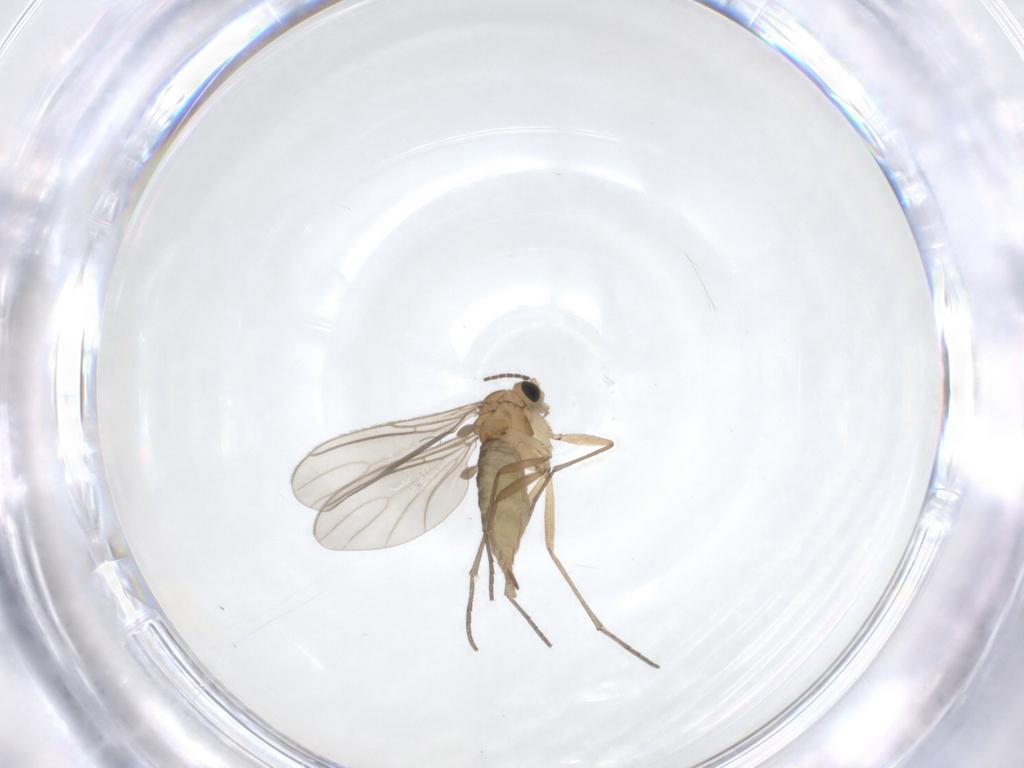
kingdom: Animalia
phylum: Arthropoda
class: Insecta
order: Diptera
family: Sciaridae
